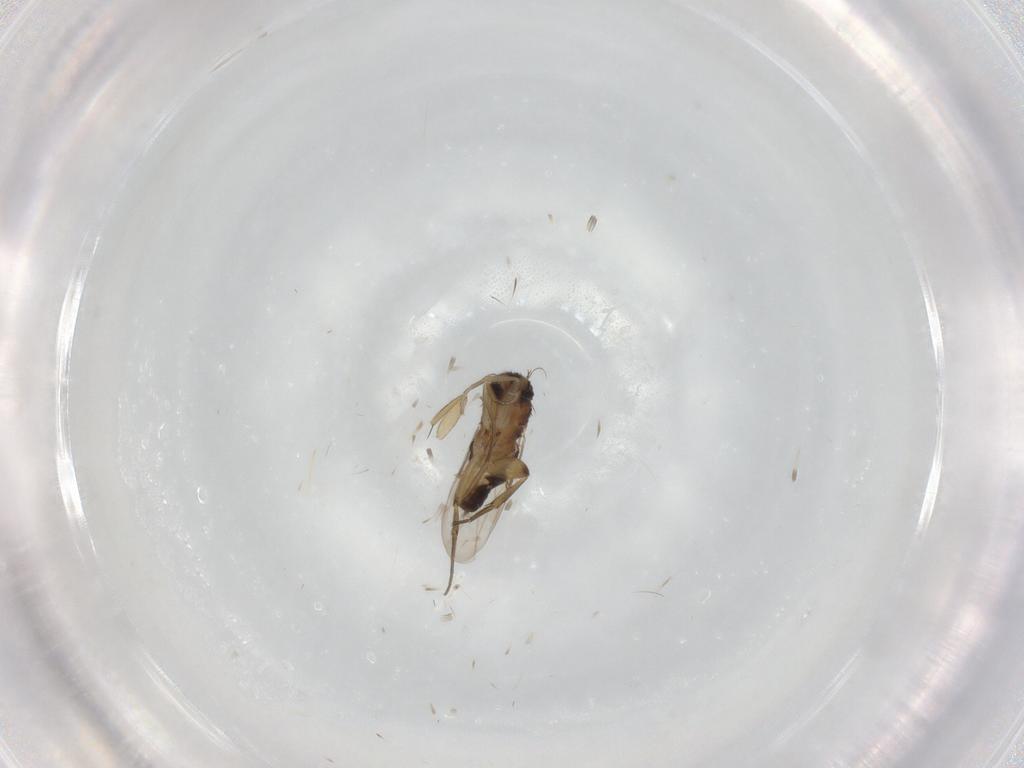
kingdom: Animalia
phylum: Arthropoda
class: Insecta
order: Diptera
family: Phoridae
